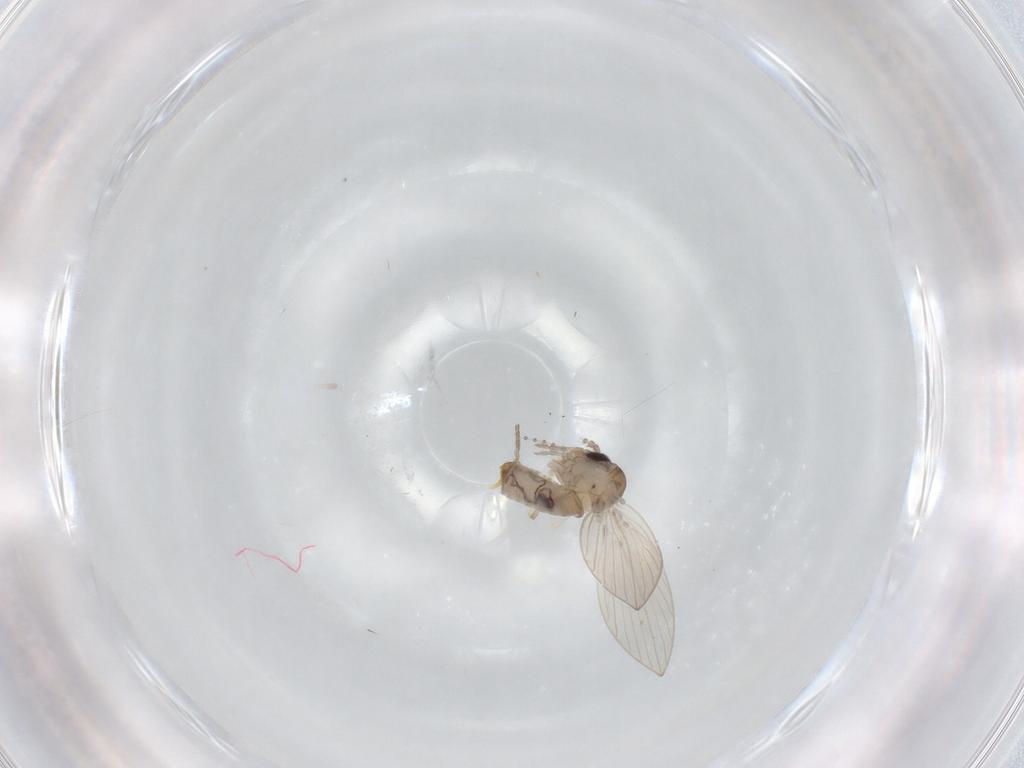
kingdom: Animalia
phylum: Arthropoda
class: Insecta
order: Diptera
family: Psychodidae
